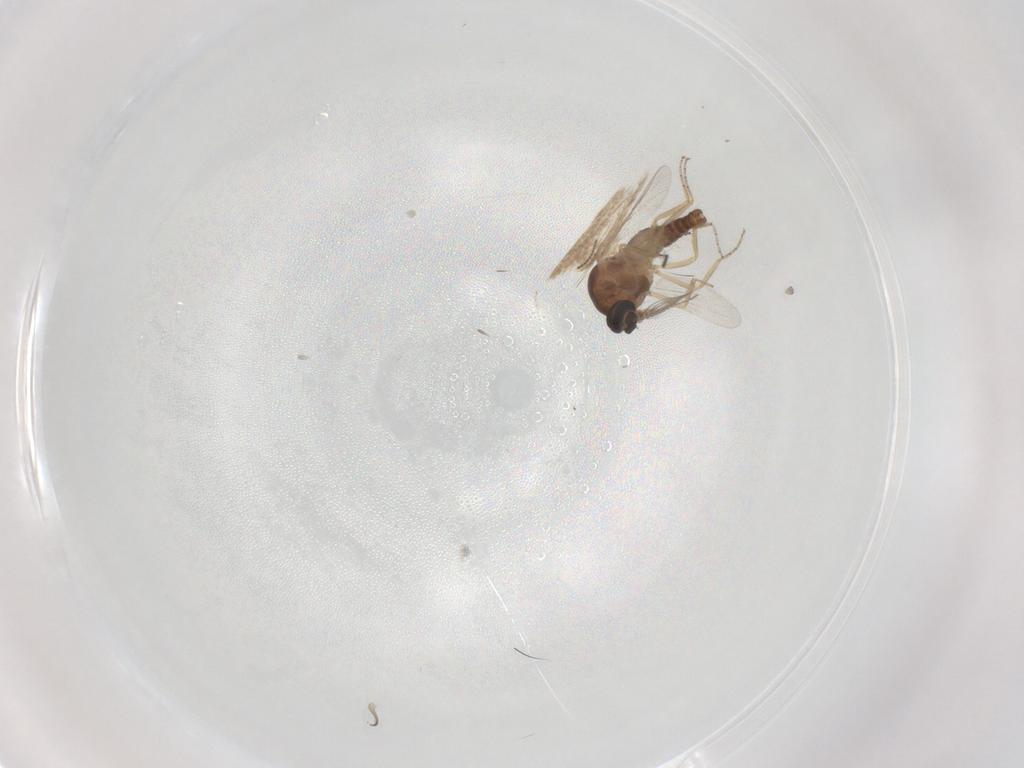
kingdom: Animalia
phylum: Arthropoda
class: Insecta
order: Diptera
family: Ceratopogonidae
